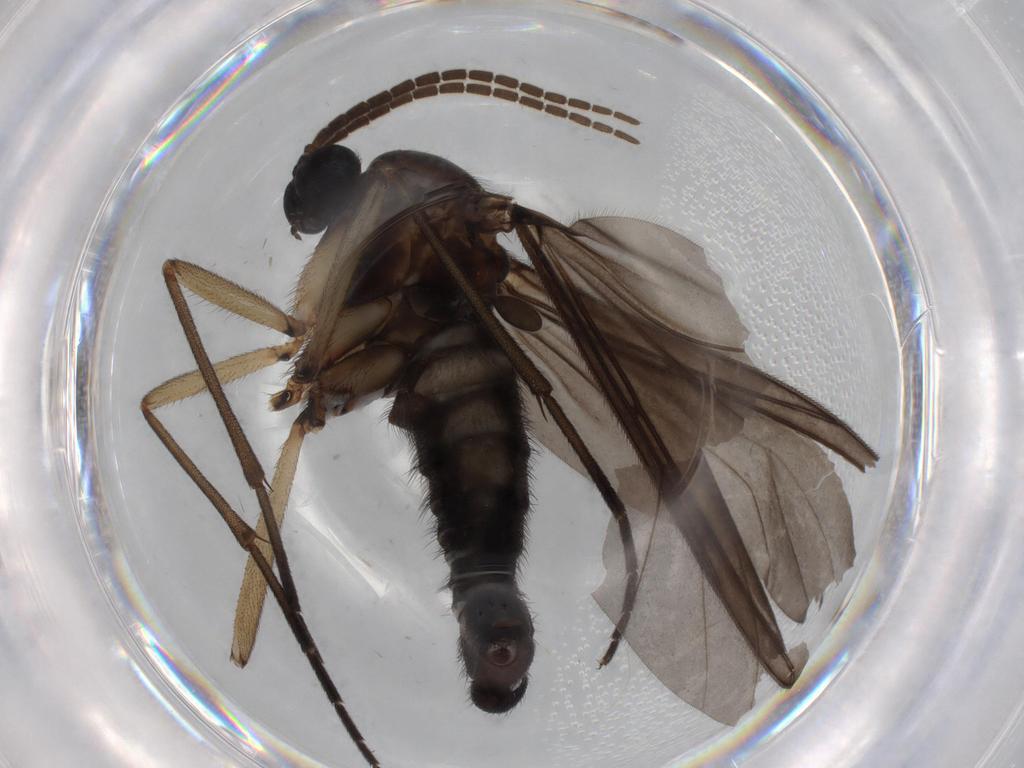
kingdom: Animalia
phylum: Arthropoda
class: Insecta
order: Diptera
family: Sciaridae
